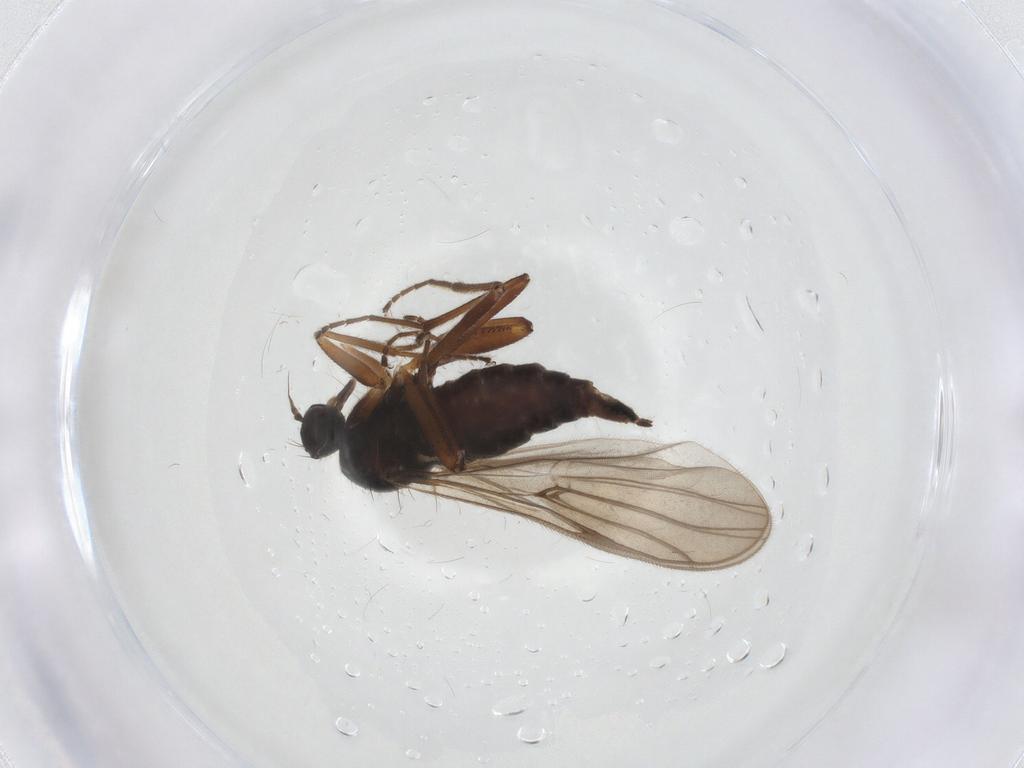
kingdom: Animalia
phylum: Arthropoda
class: Insecta
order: Diptera
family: Hybotidae
